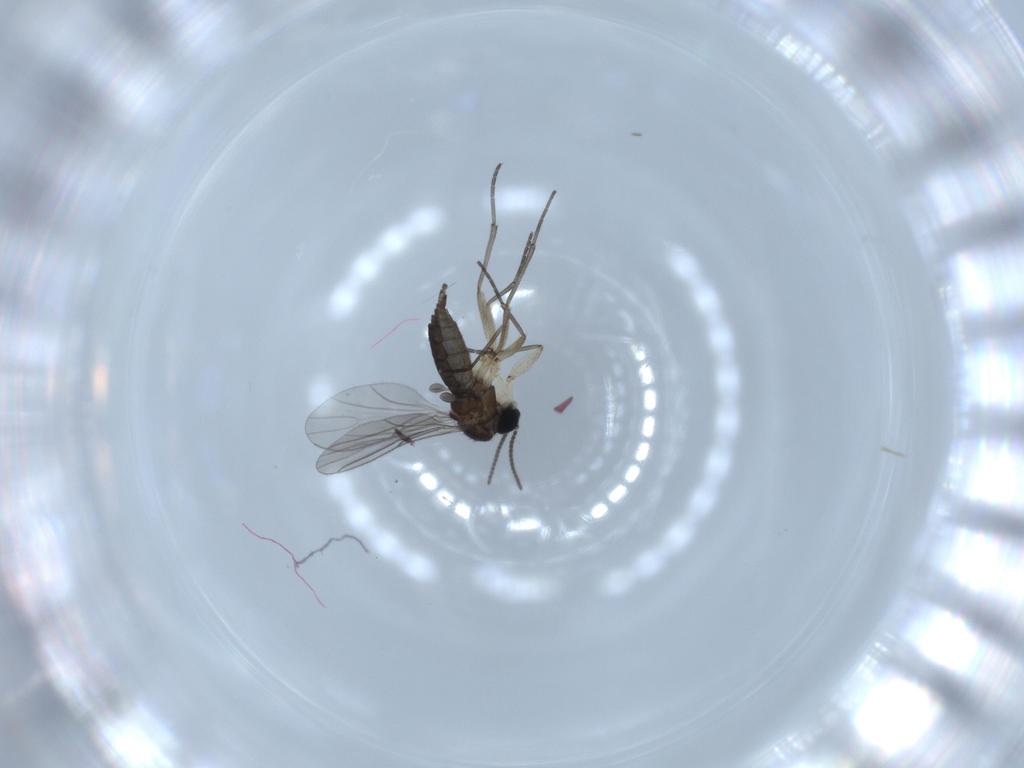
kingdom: Animalia
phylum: Arthropoda
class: Insecta
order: Diptera
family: Sciaridae
